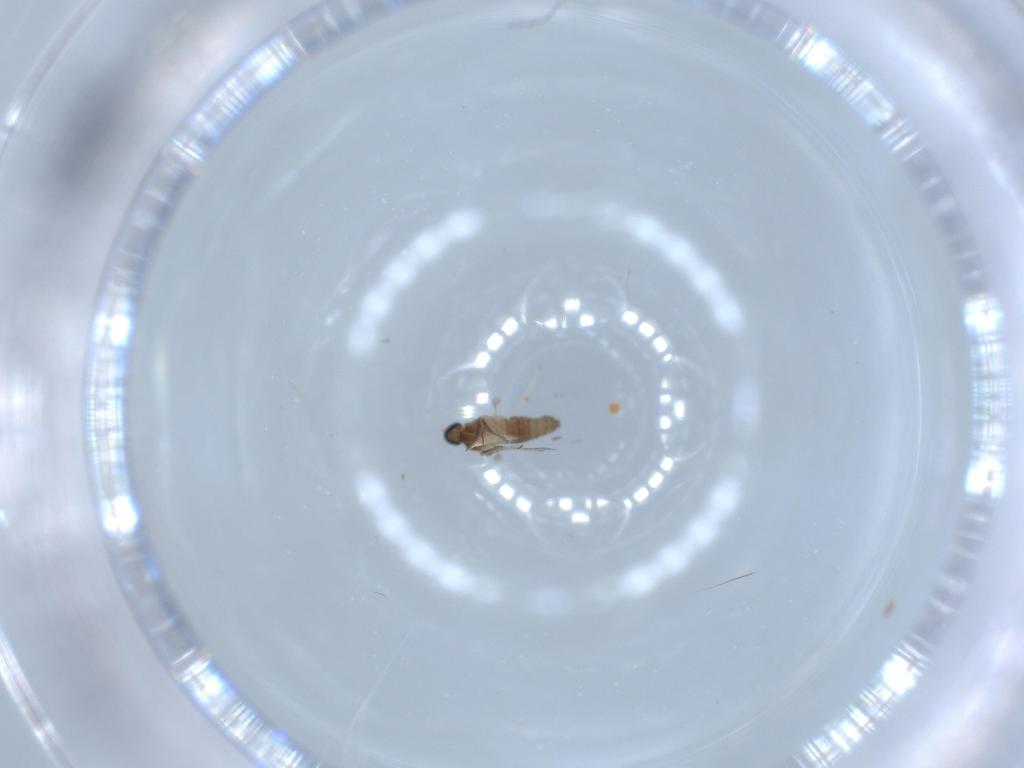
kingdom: Animalia
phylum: Arthropoda
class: Insecta
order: Diptera
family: Cecidomyiidae
